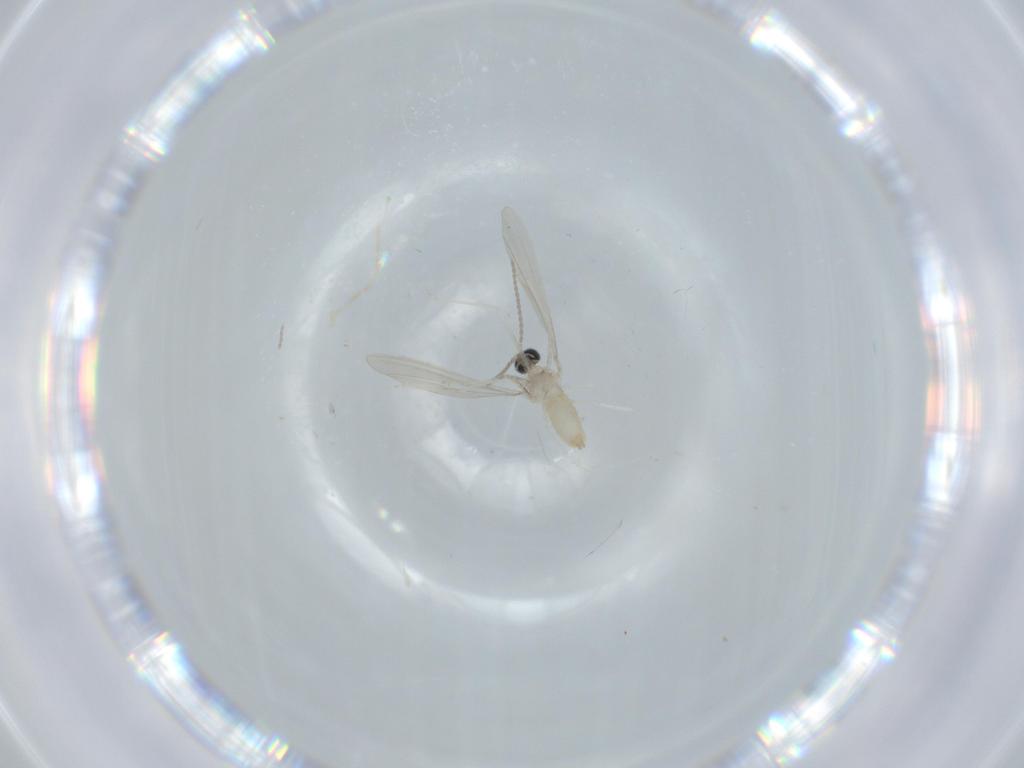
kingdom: Animalia
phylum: Arthropoda
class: Insecta
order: Diptera
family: Cecidomyiidae
